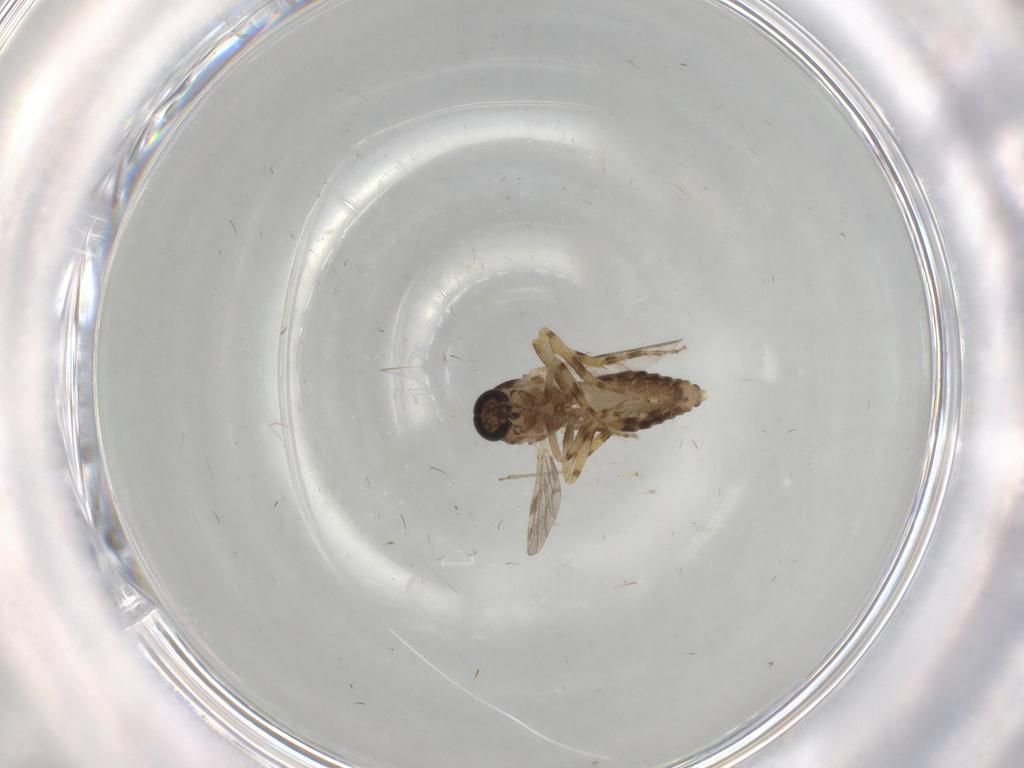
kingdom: Animalia
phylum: Arthropoda
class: Insecta
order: Diptera
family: Ceratopogonidae
